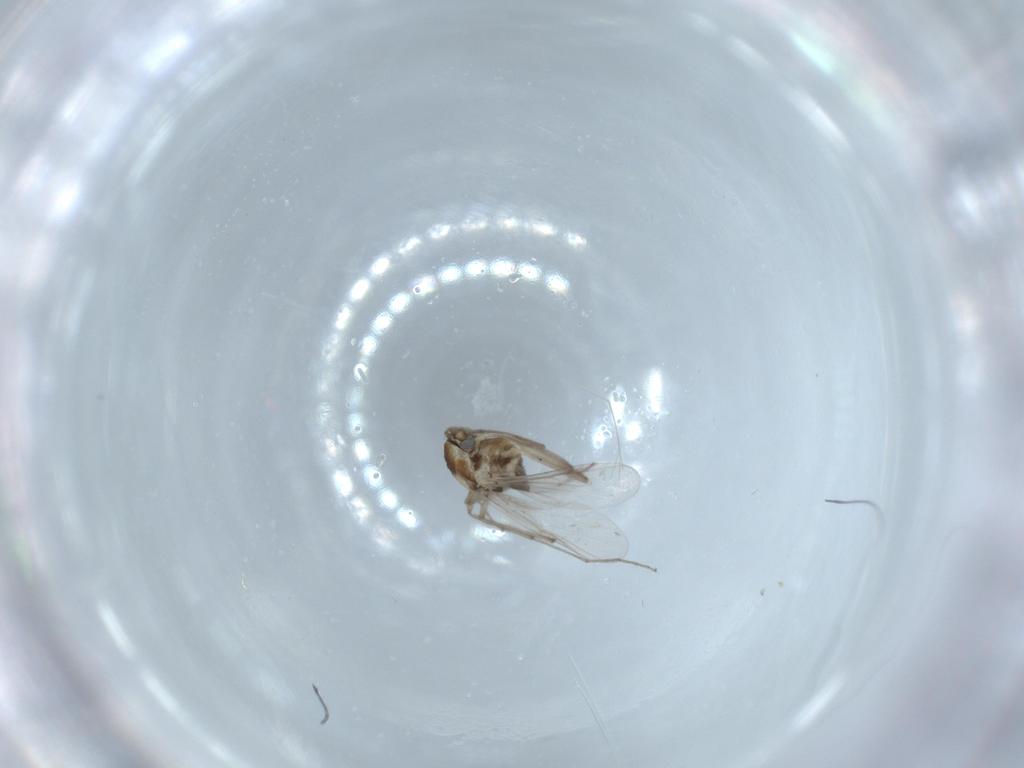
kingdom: Animalia
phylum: Arthropoda
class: Insecta
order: Diptera
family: Chironomidae
